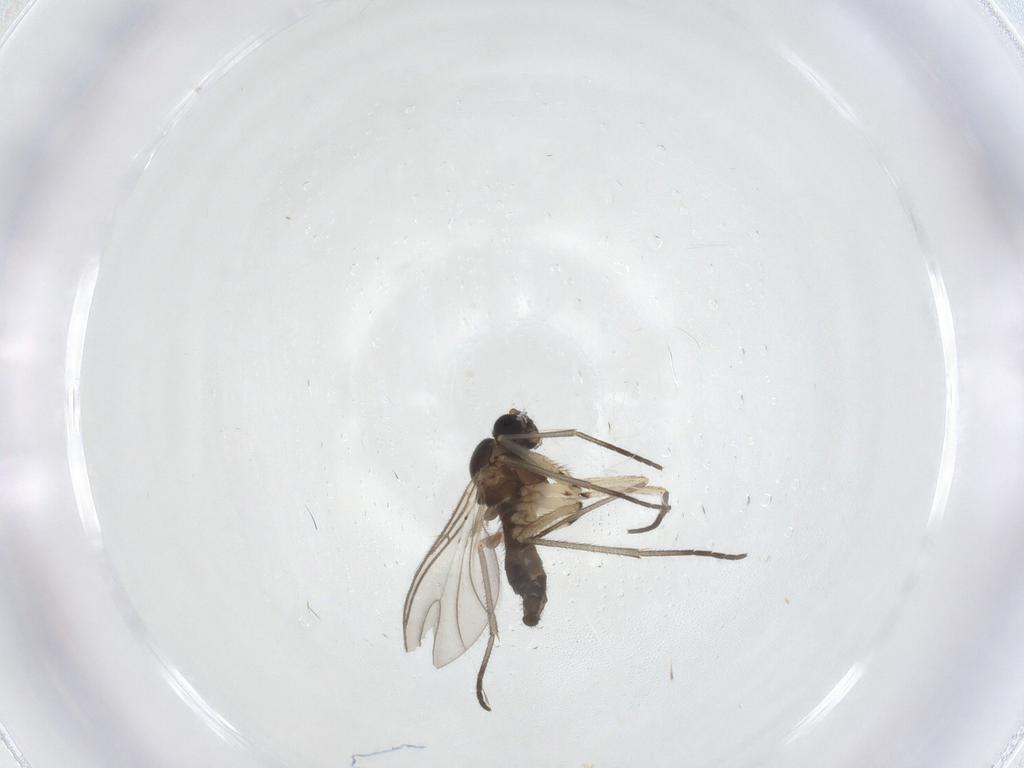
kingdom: Animalia
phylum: Arthropoda
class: Insecta
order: Diptera
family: Sciaridae
